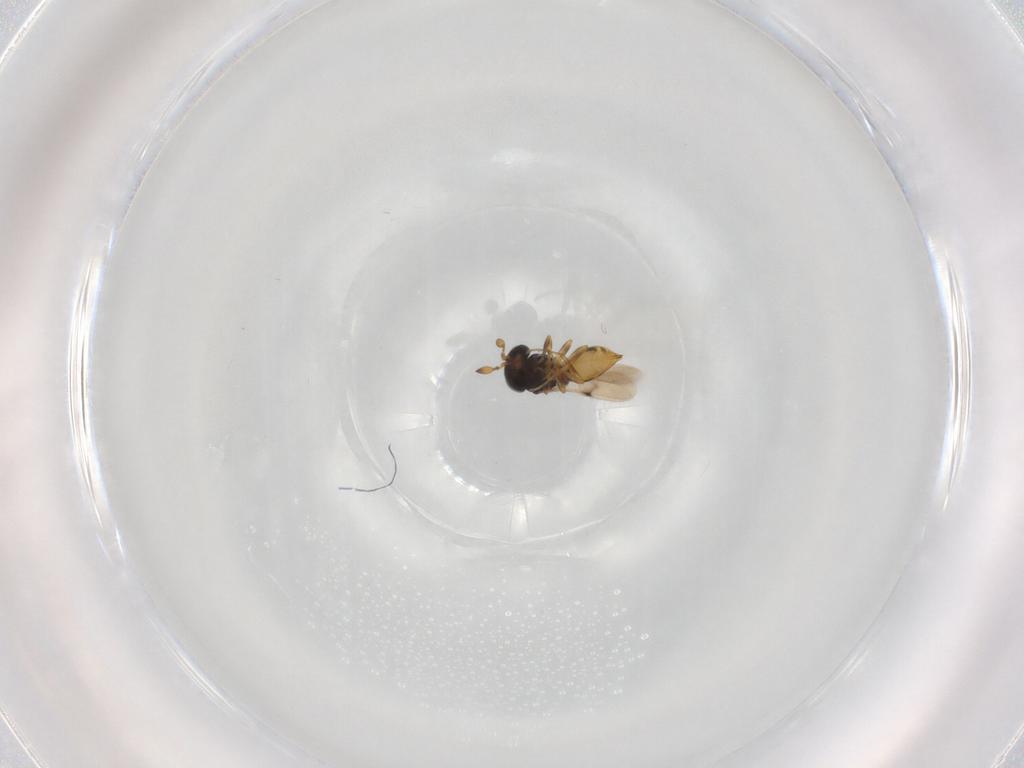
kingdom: Animalia
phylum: Arthropoda
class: Insecta
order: Hymenoptera
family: Scelionidae
